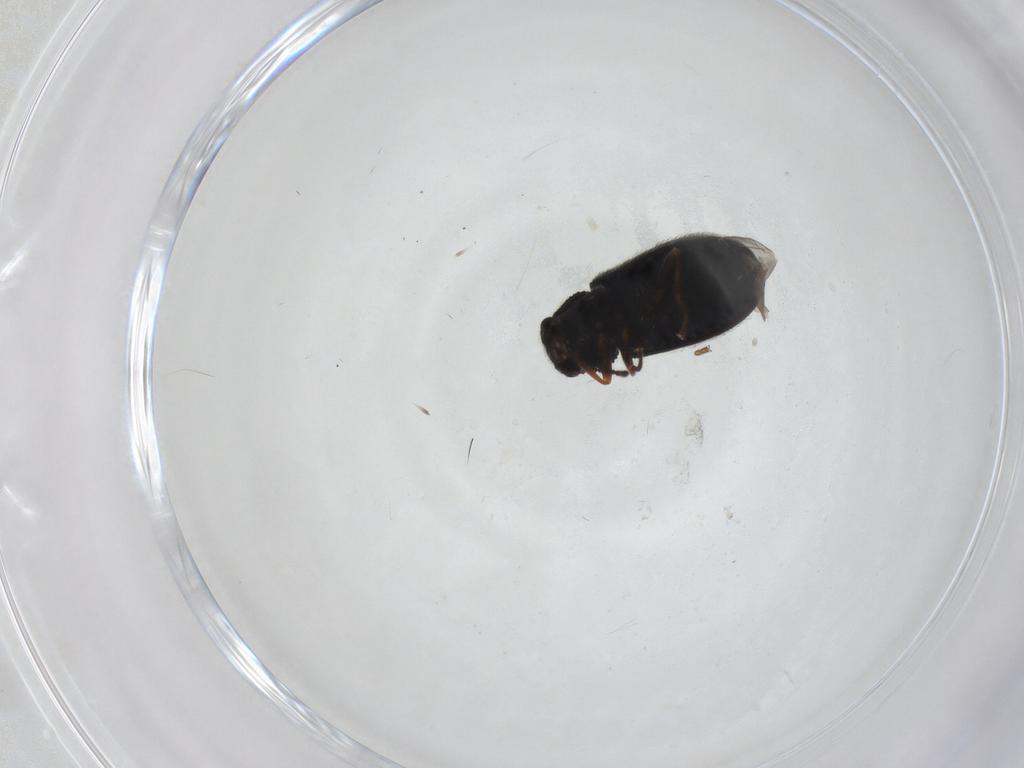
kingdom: Animalia
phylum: Arthropoda
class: Insecta
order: Coleoptera
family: Melyridae
